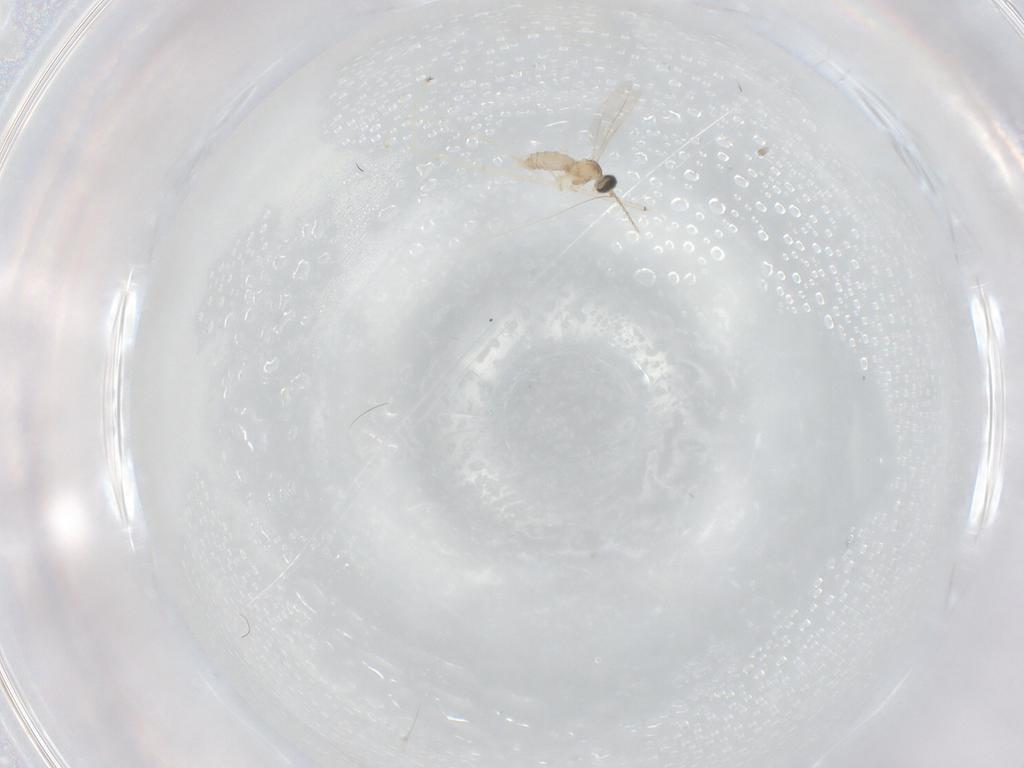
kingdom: Animalia
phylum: Arthropoda
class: Insecta
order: Diptera
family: Cecidomyiidae
